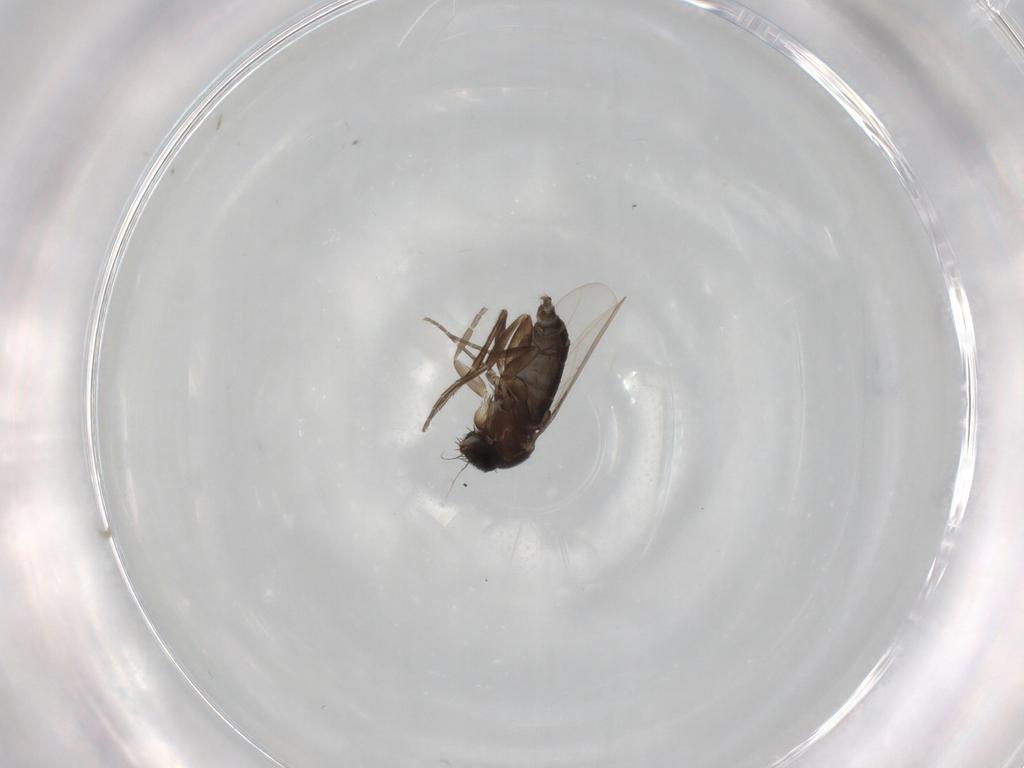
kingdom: Animalia
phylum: Arthropoda
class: Insecta
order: Diptera
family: Phoridae
